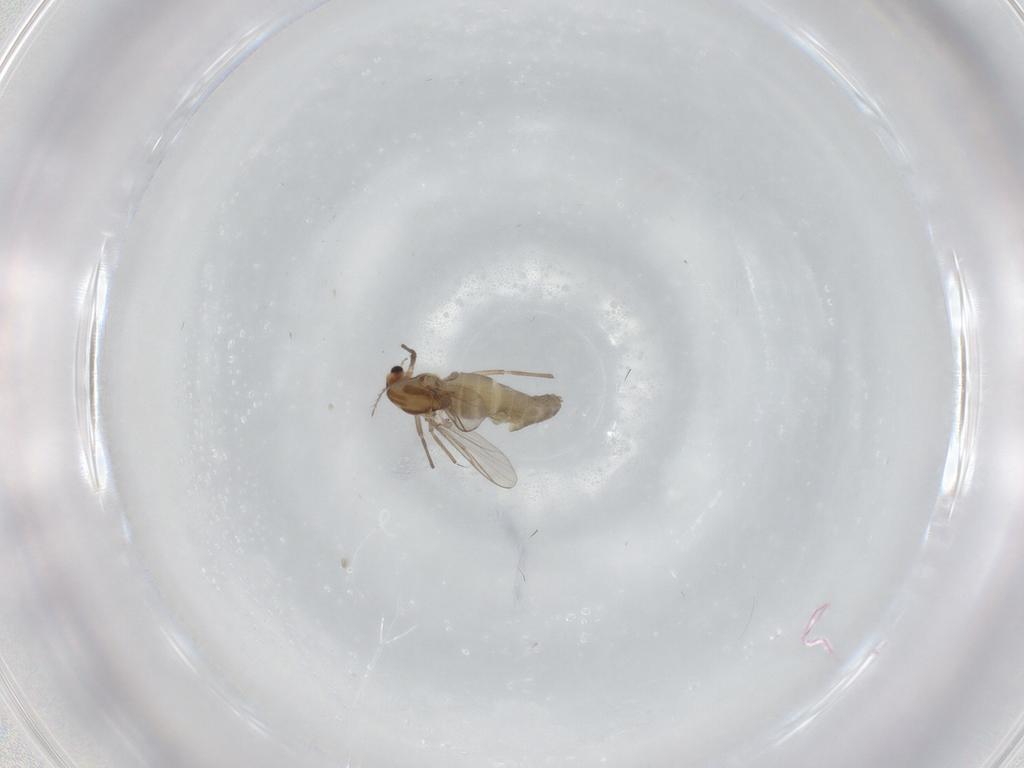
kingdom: Animalia
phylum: Arthropoda
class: Insecta
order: Diptera
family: Chironomidae
